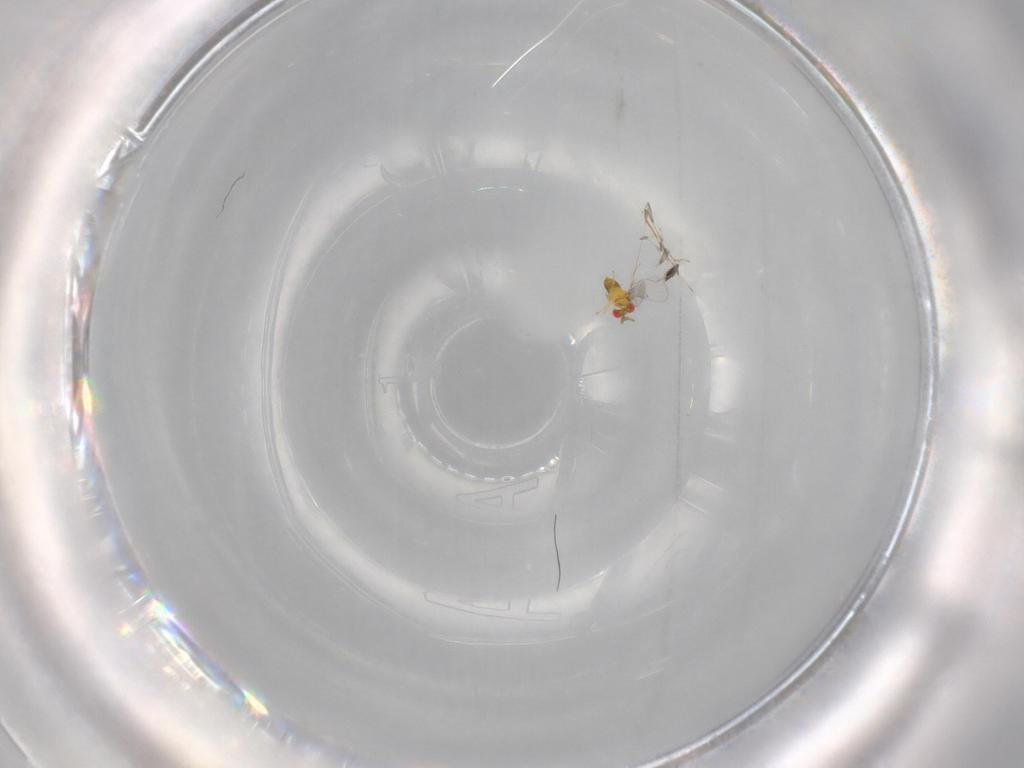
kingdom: Animalia
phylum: Arthropoda
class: Insecta
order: Hymenoptera
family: Trichogrammatidae
